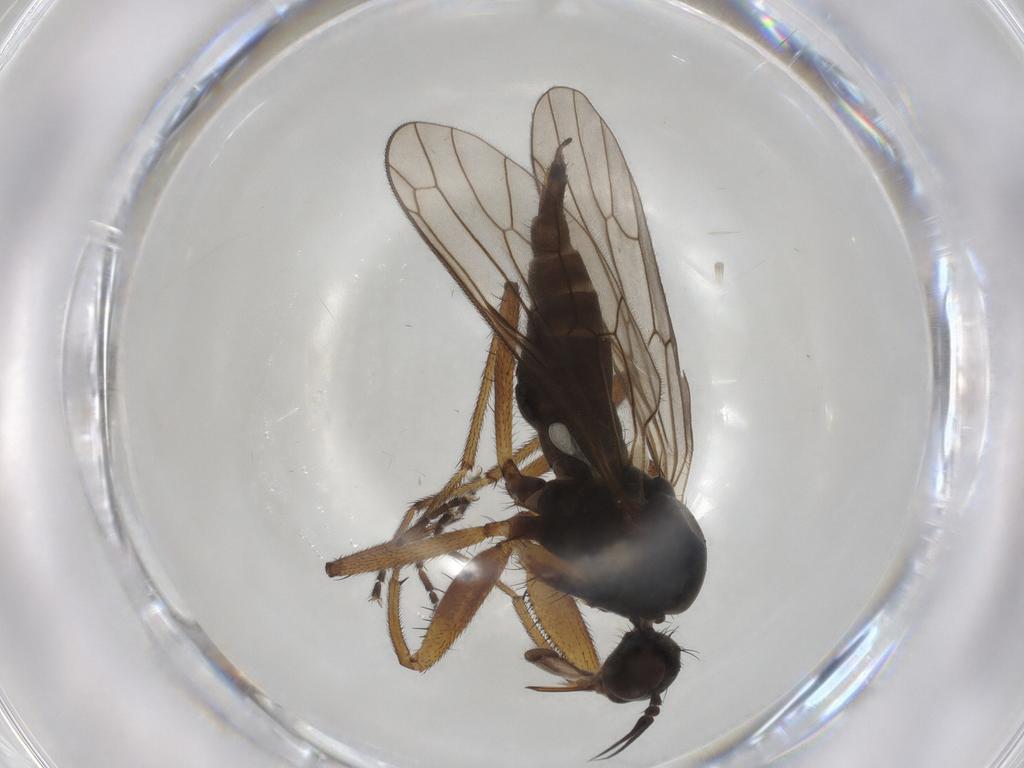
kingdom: Animalia
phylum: Arthropoda
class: Insecta
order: Diptera
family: Empididae
